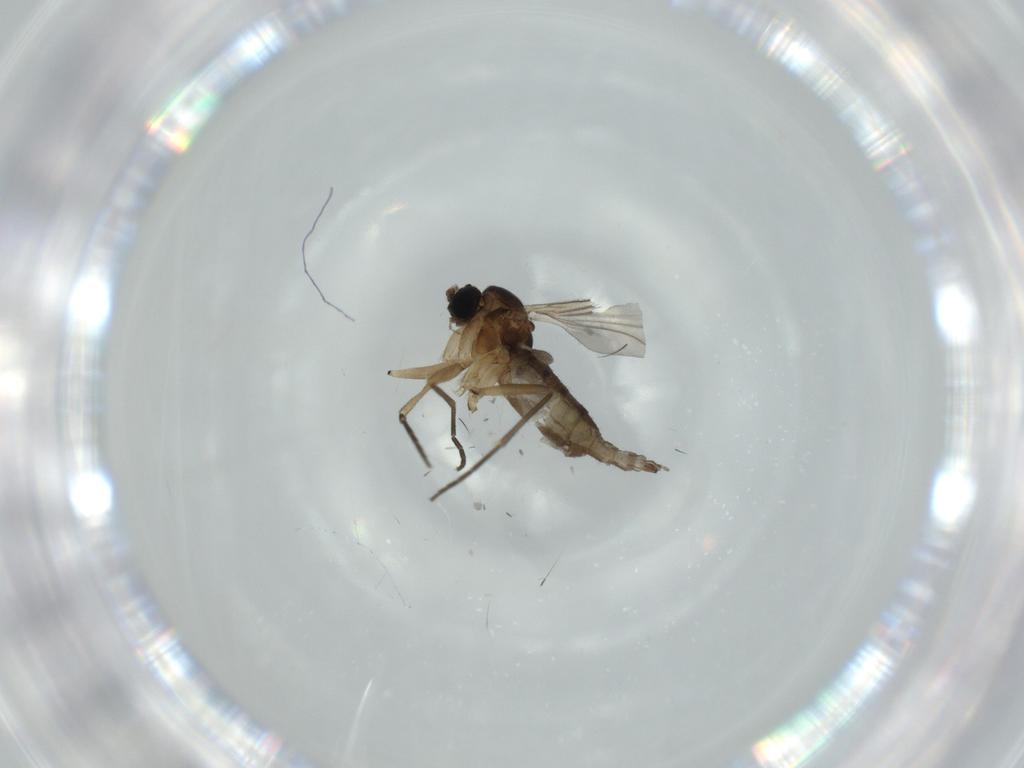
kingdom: Animalia
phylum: Arthropoda
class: Insecta
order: Diptera
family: Sciaridae
